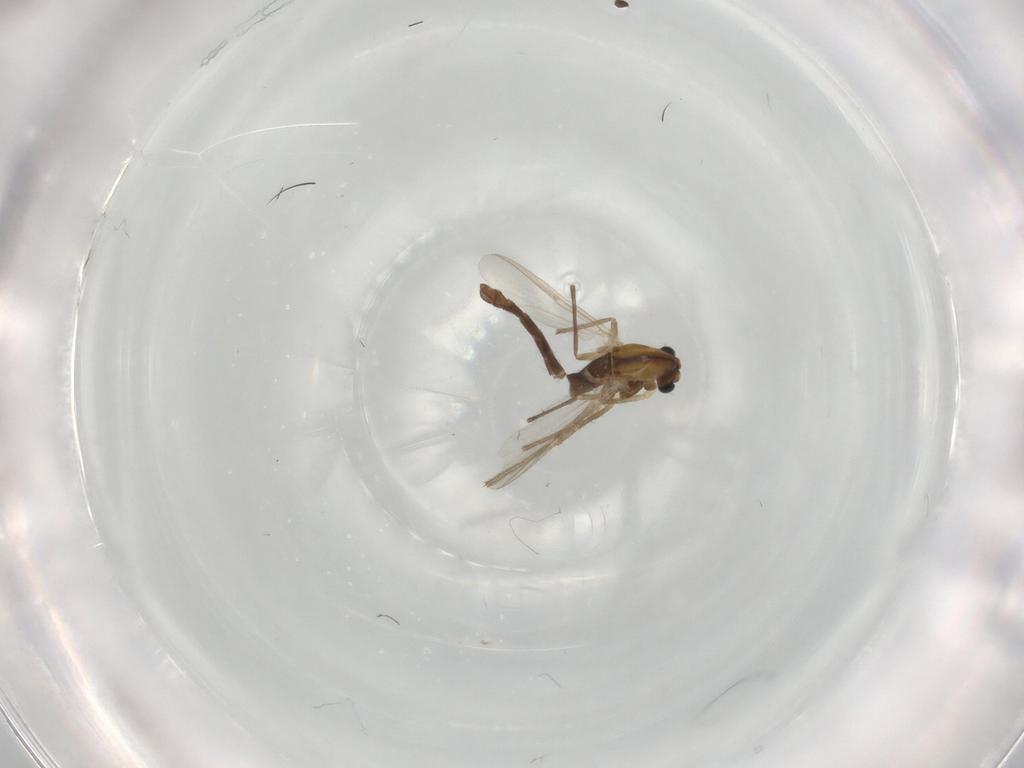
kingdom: Animalia
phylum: Arthropoda
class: Insecta
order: Diptera
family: Chironomidae
